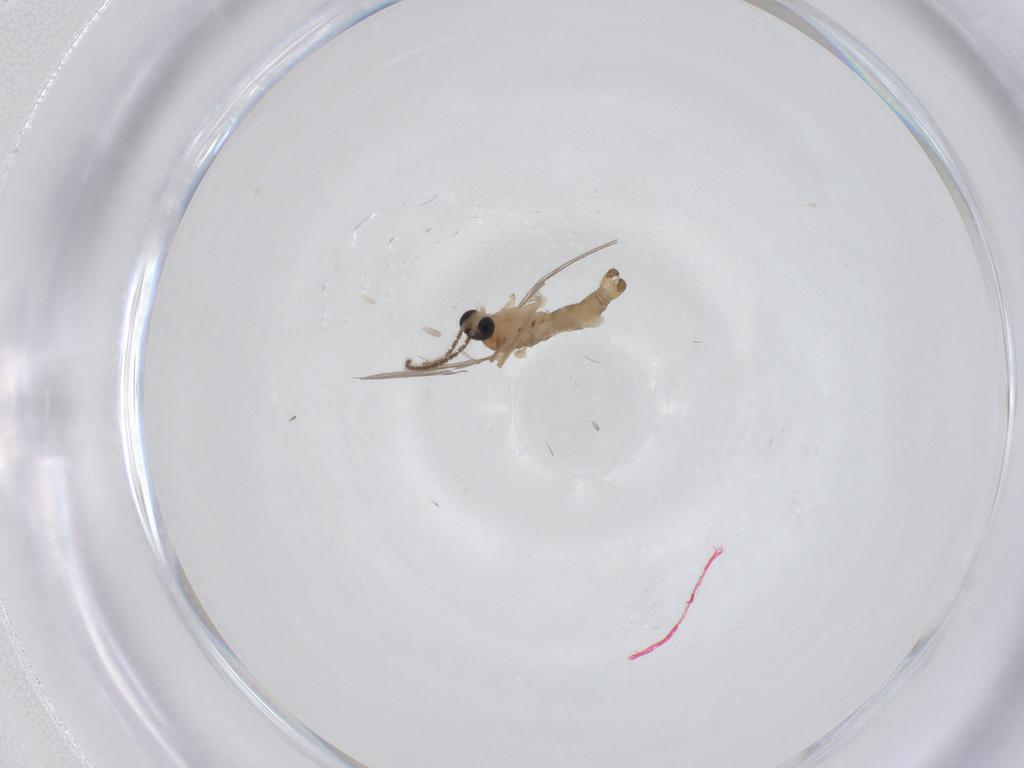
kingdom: Animalia
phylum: Arthropoda
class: Insecta
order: Diptera
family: Sciaridae
